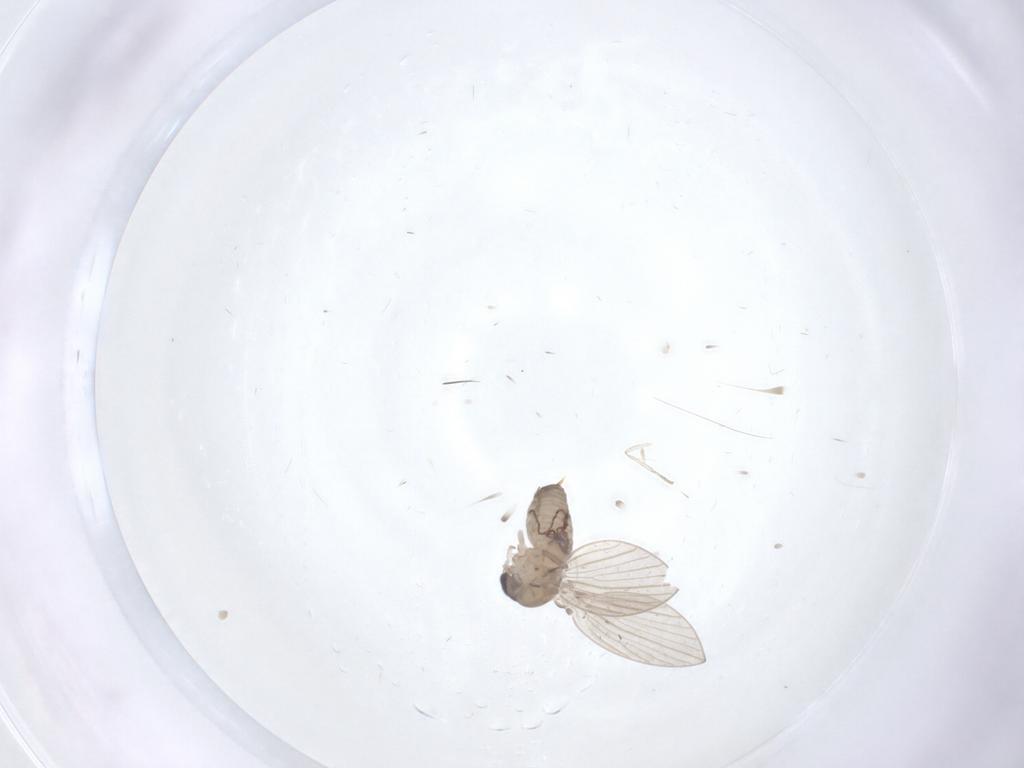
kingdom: Animalia
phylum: Arthropoda
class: Insecta
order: Diptera
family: Psychodidae
